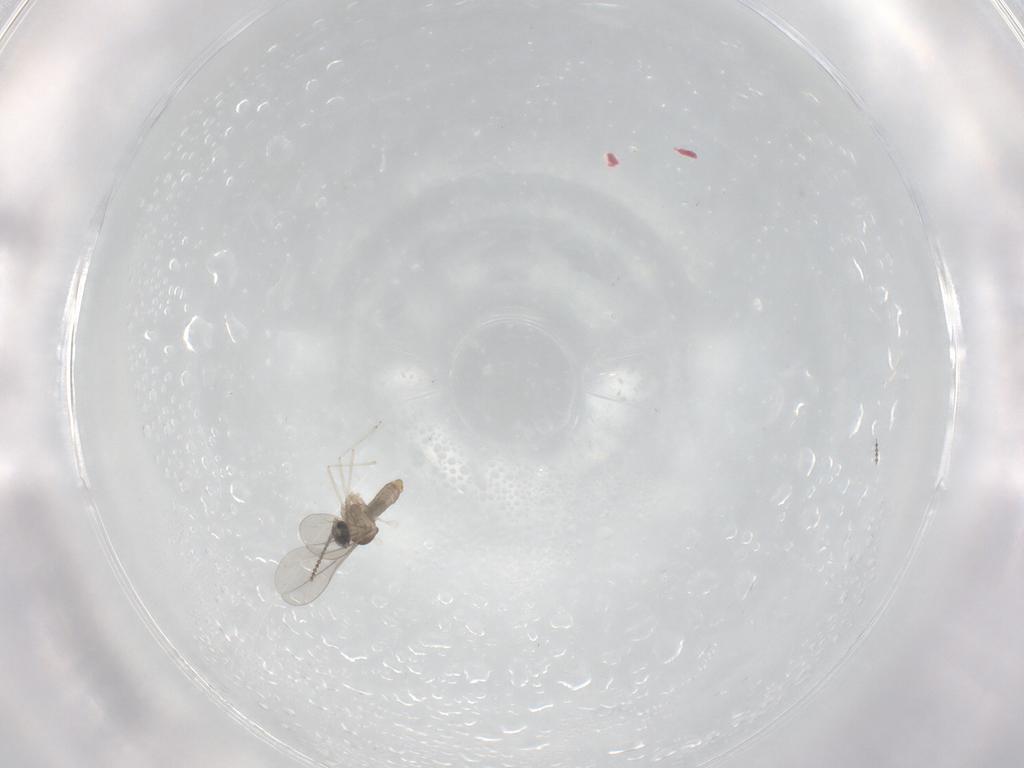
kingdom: Animalia
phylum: Arthropoda
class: Insecta
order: Diptera
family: Cecidomyiidae
